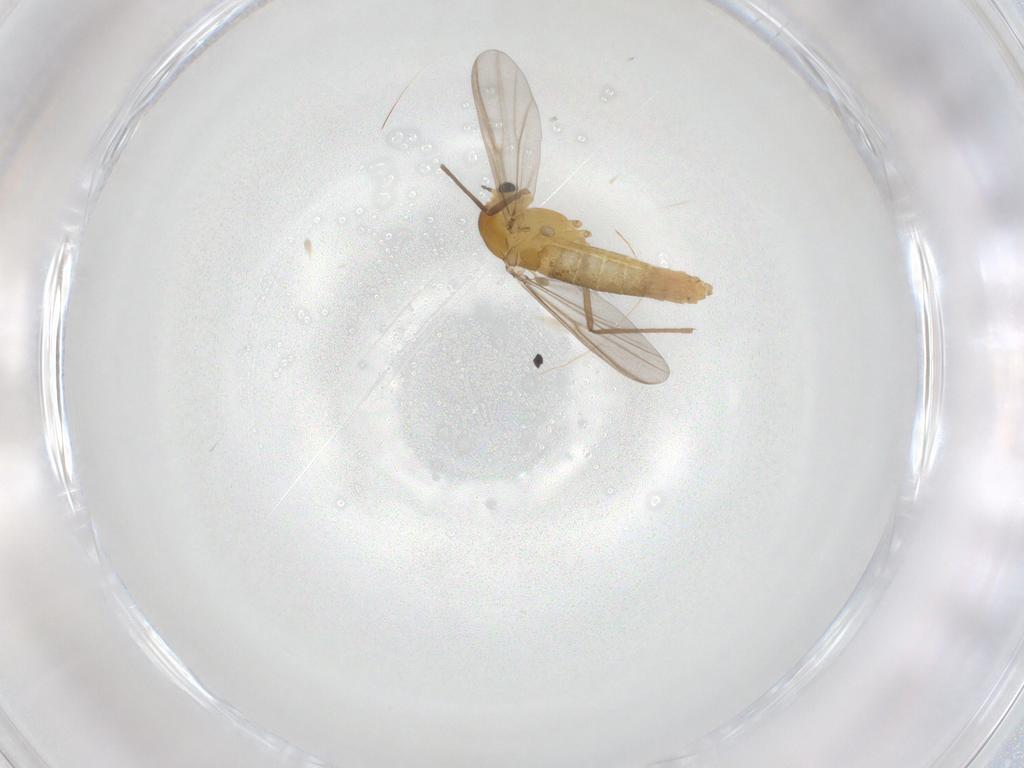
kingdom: Animalia
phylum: Arthropoda
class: Insecta
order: Diptera
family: Chironomidae
